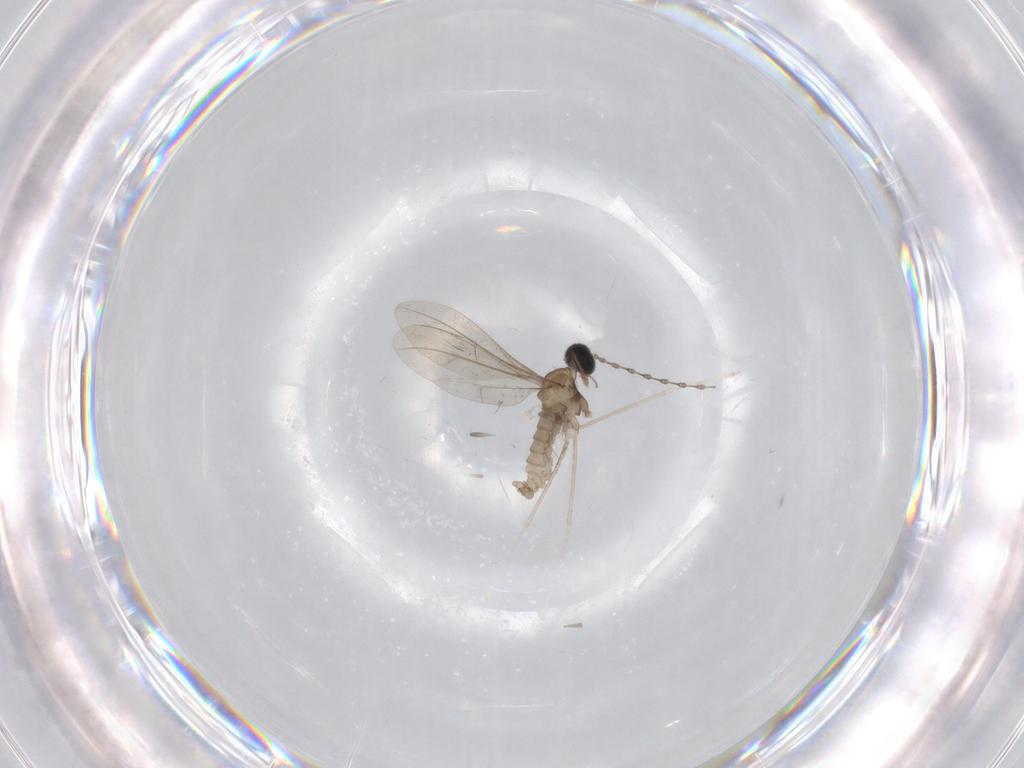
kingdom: Animalia
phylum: Arthropoda
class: Insecta
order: Diptera
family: Cecidomyiidae
